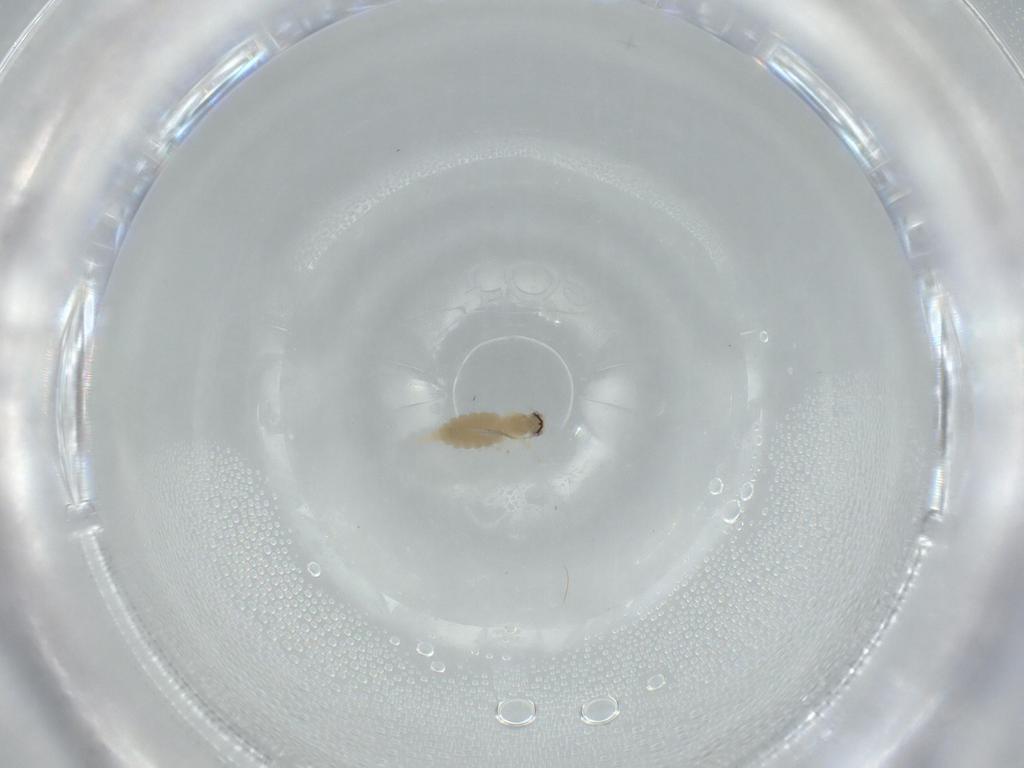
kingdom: Animalia
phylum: Arthropoda
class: Insecta
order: Diptera
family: Cecidomyiidae
